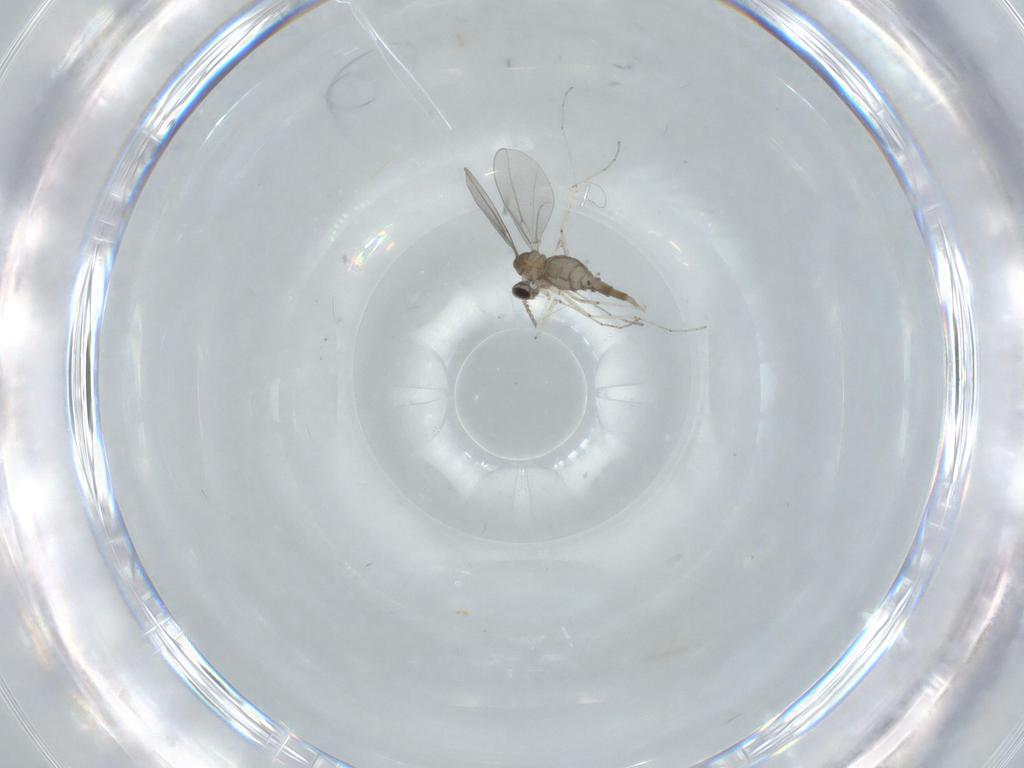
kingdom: Animalia
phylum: Arthropoda
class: Insecta
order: Diptera
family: Cecidomyiidae
